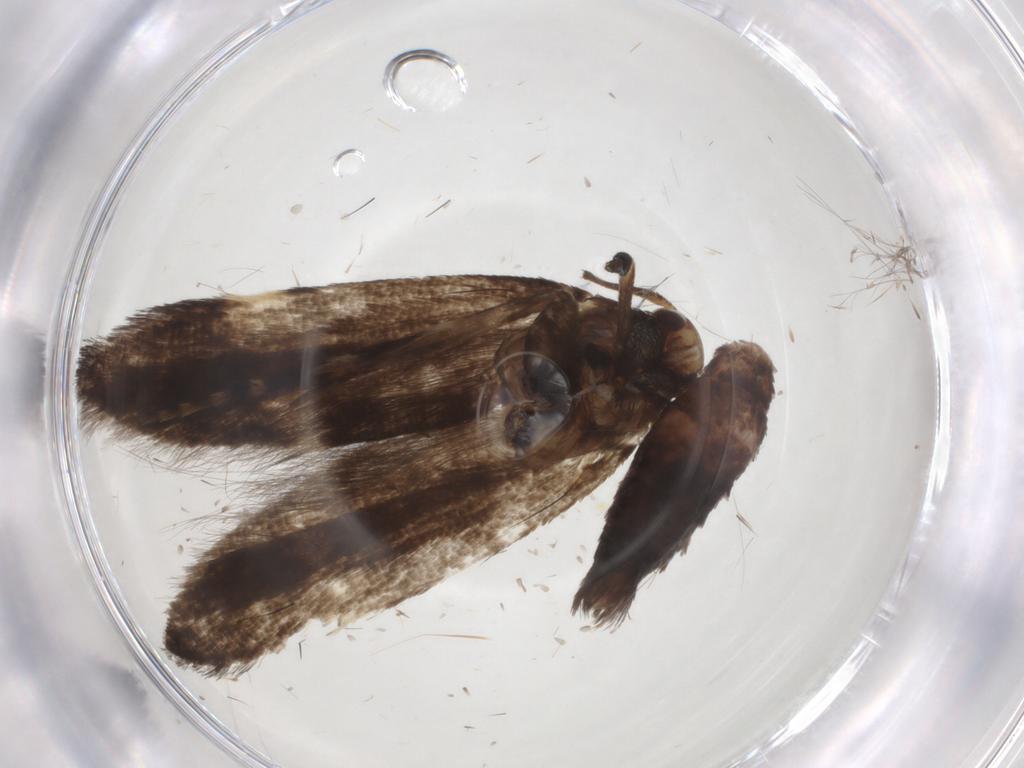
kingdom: Animalia
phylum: Arthropoda
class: Insecta
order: Lepidoptera
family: Gelechiidae
